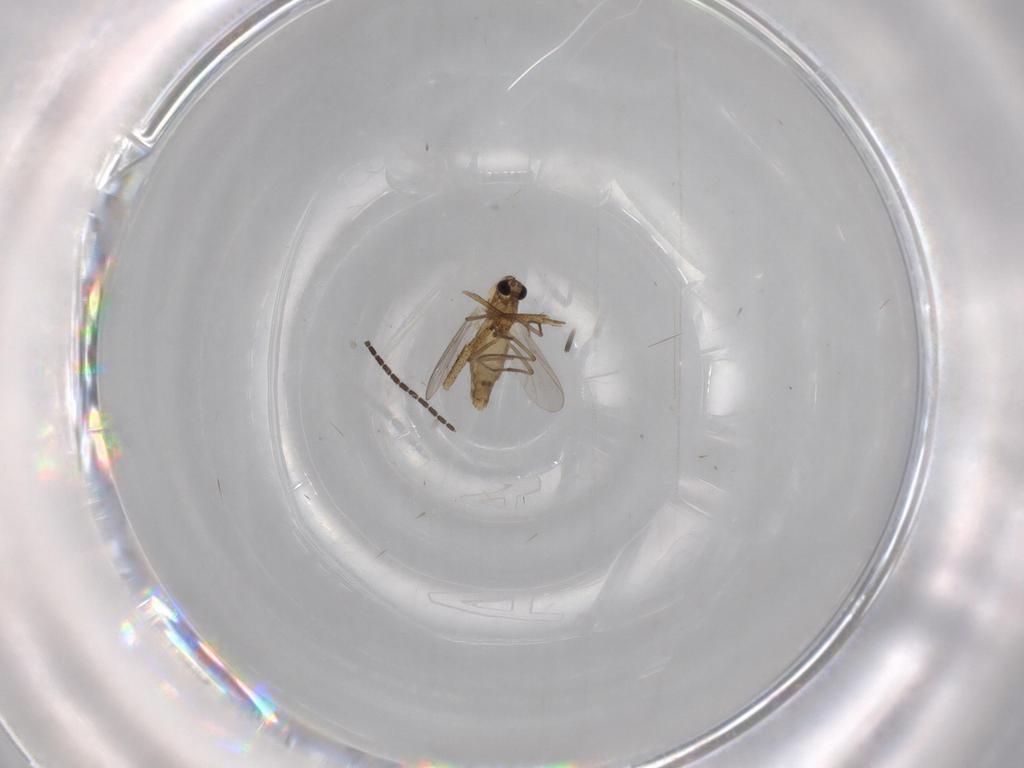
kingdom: Animalia
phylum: Arthropoda
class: Insecta
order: Diptera
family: Chironomidae
